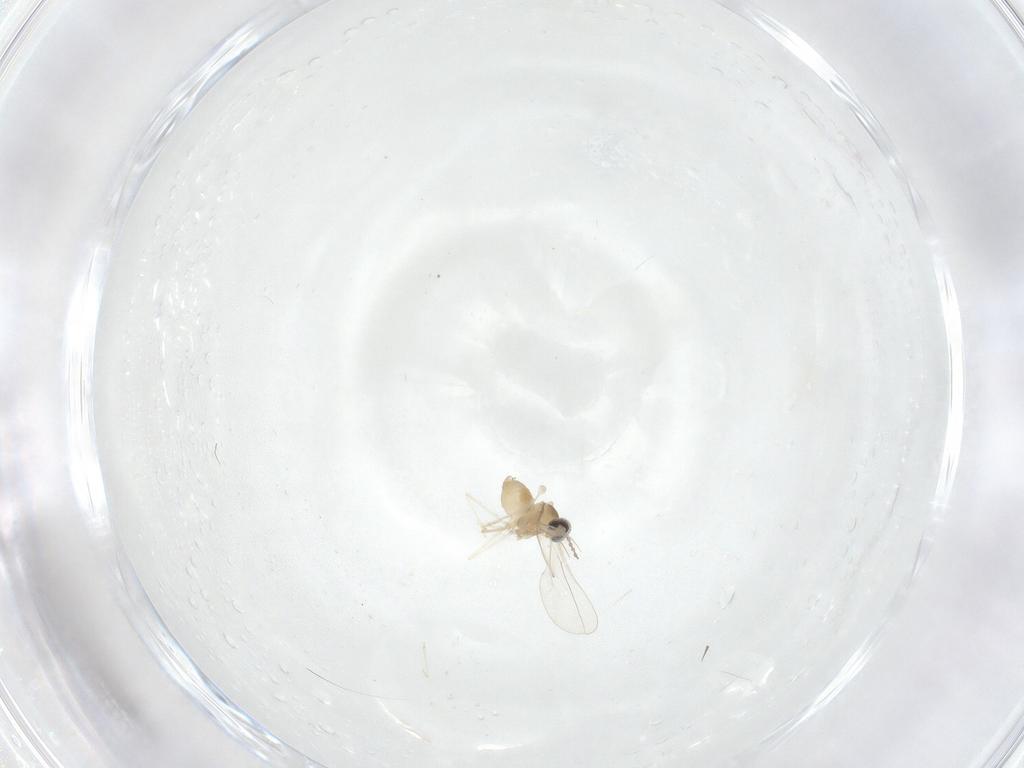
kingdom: Animalia
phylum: Arthropoda
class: Insecta
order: Diptera
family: Cecidomyiidae
